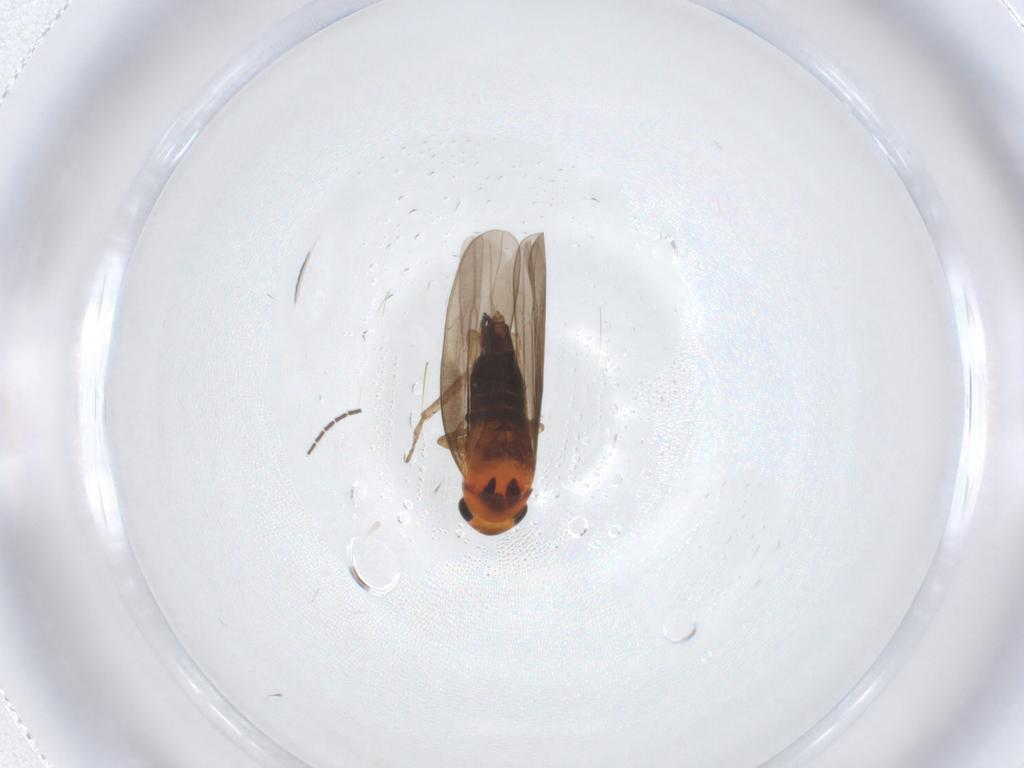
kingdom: Animalia
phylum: Arthropoda
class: Insecta
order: Hemiptera
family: Cicadellidae
